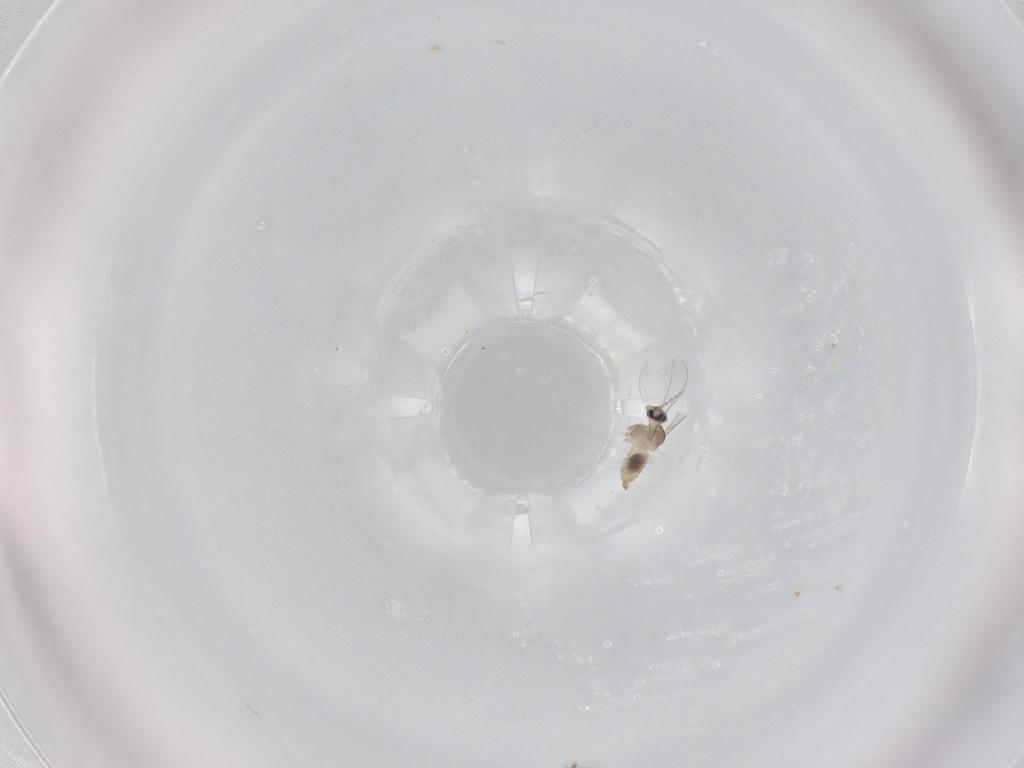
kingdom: Animalia
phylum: Arthropoda
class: Insecta
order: Diptera
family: Cecidomyiidae
